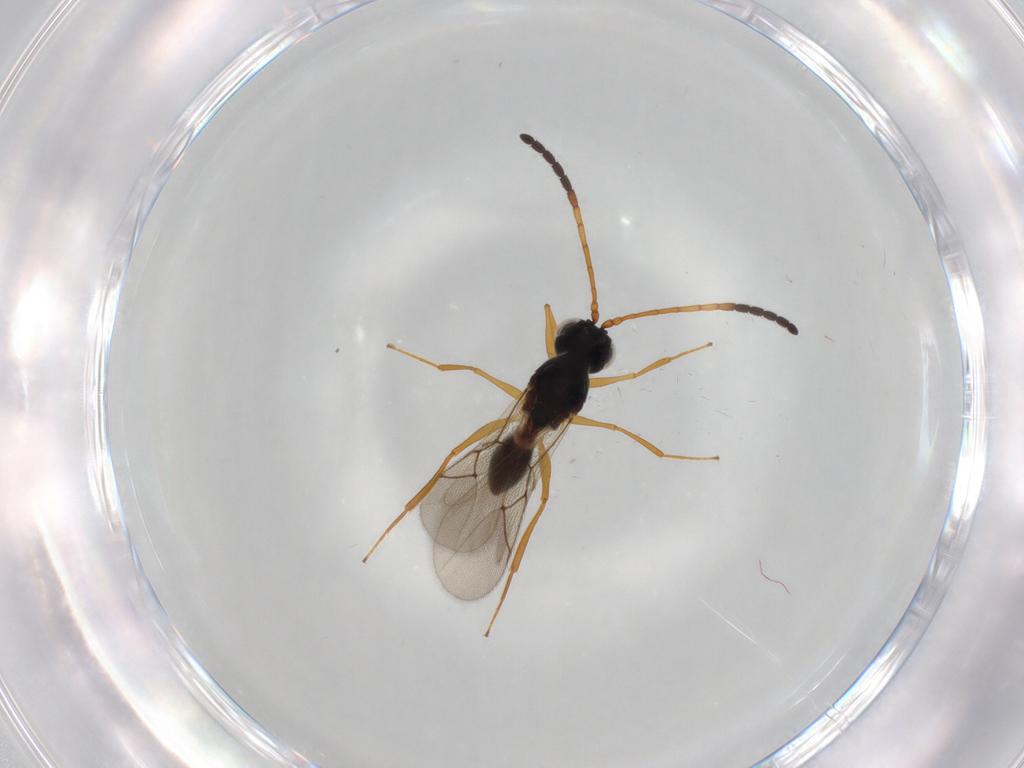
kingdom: Animalia
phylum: Arthropoda
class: Insecta
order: Hymenoptera
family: Figitidae
